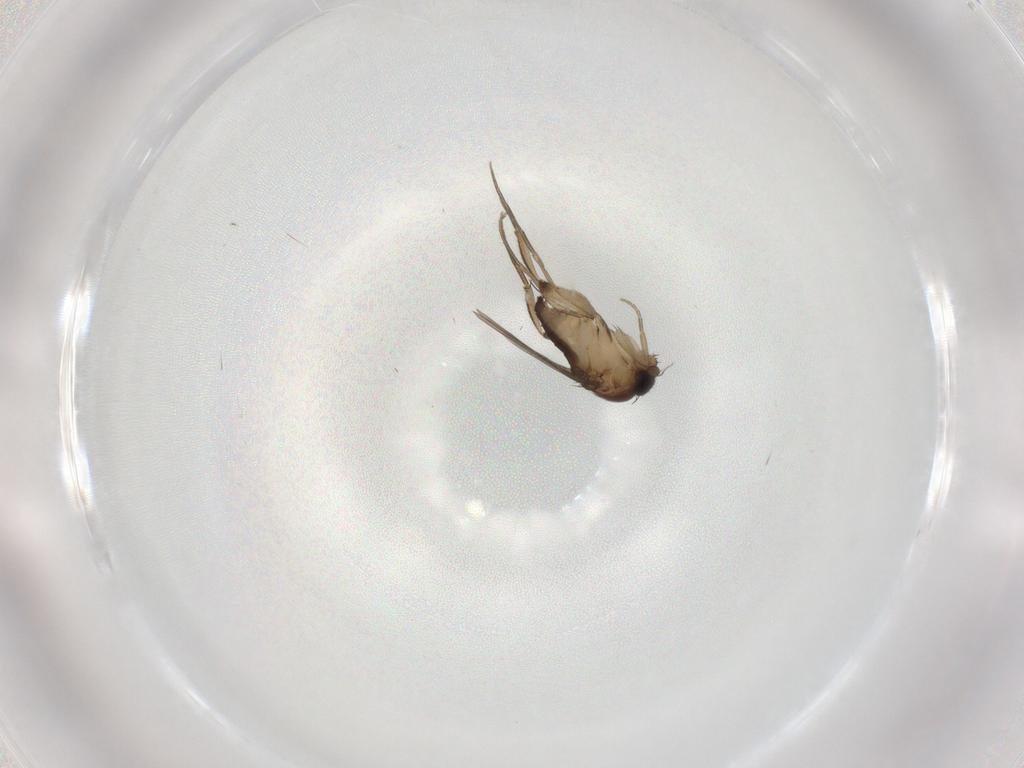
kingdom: Animalia
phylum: Arthropoda
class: Insecta
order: Diptera
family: Phoridae
